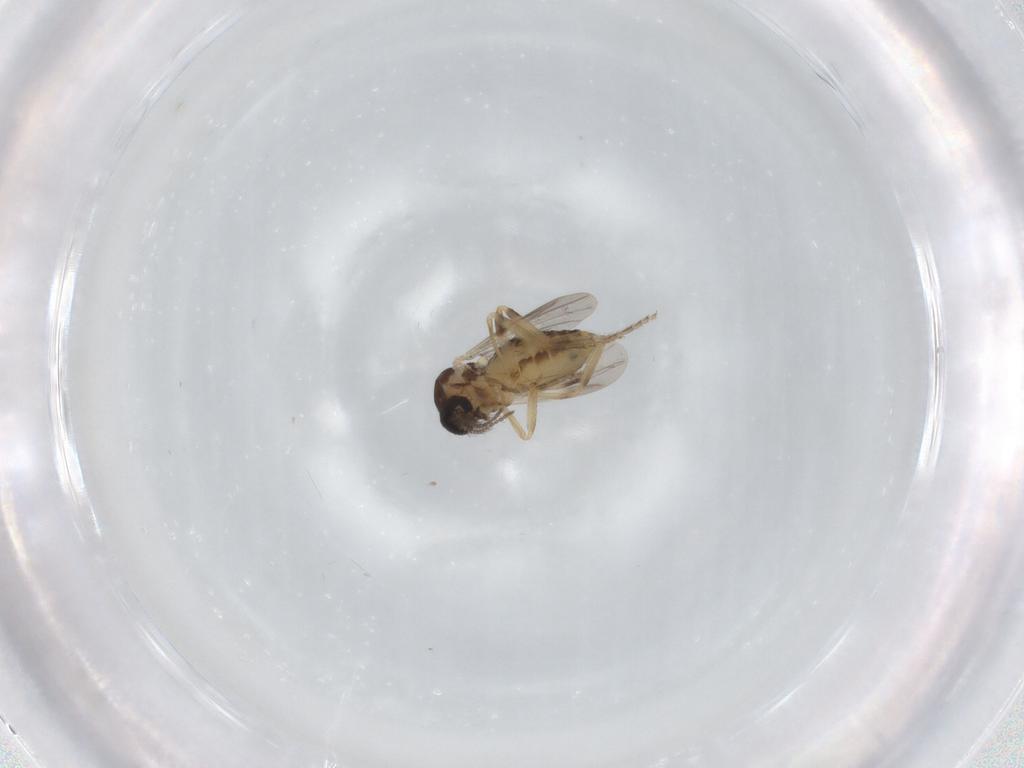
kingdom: Animalia
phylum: Arthropoda
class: Insecta
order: Diptera
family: Ceratopogonidae
